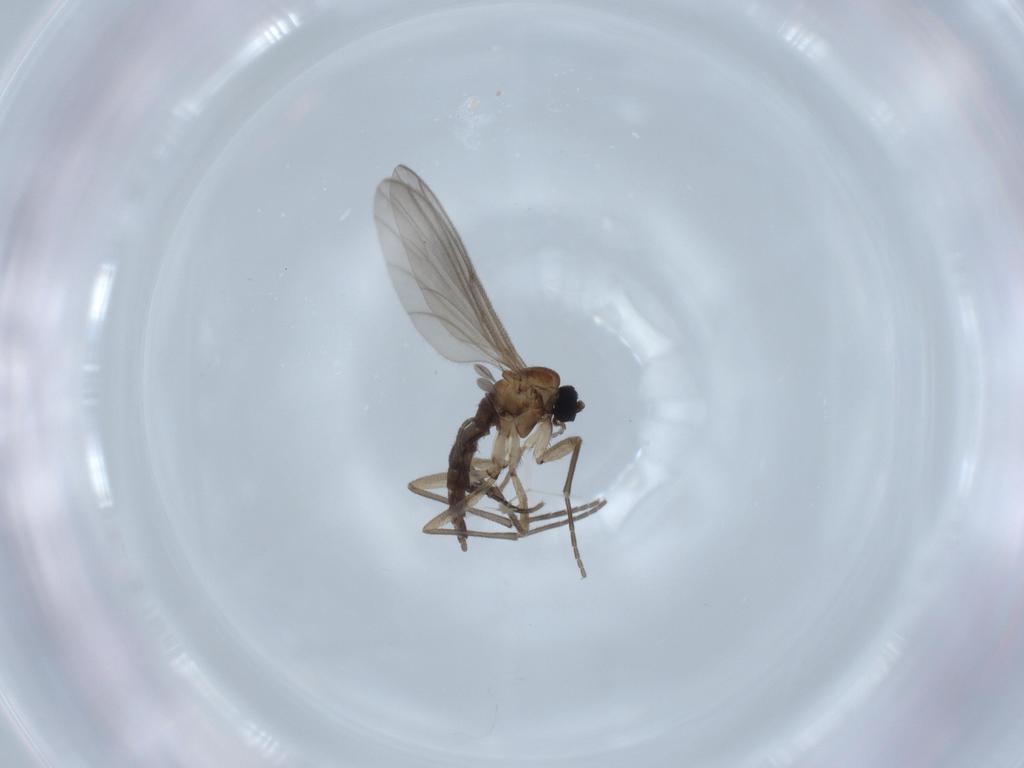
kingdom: Animalia
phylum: Arthropoda
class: Insecta
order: Diptera
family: Sciaridae
